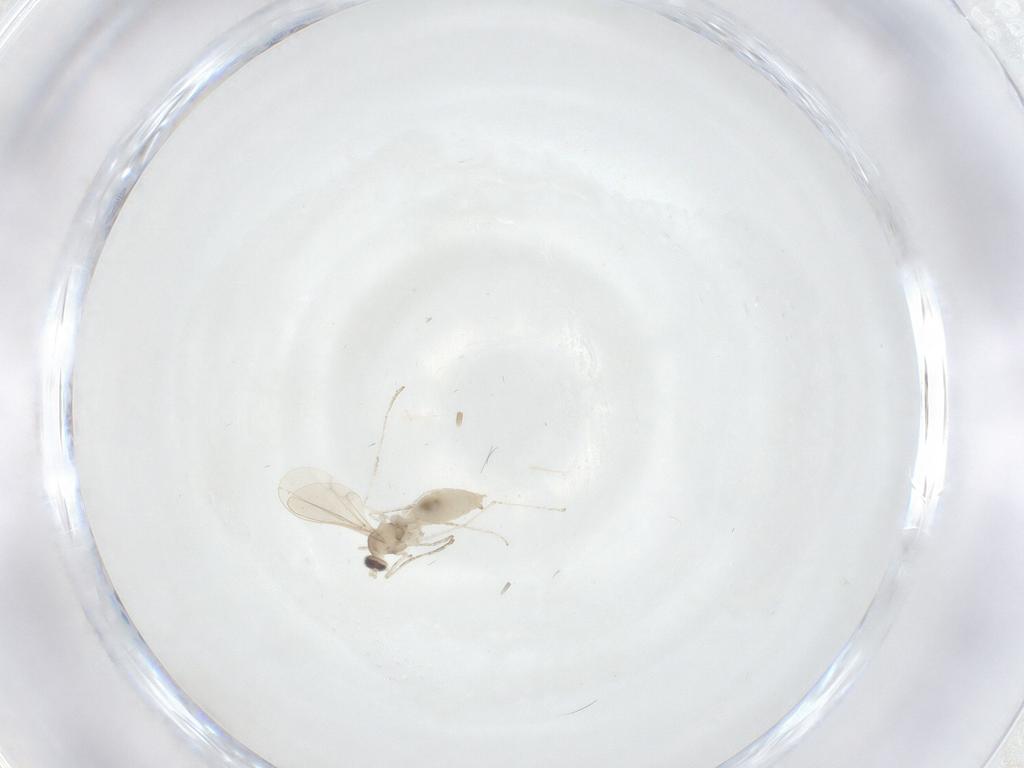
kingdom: Animalia
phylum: Arthropoda
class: Insecta
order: Diptera
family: Cecidomyiidae
